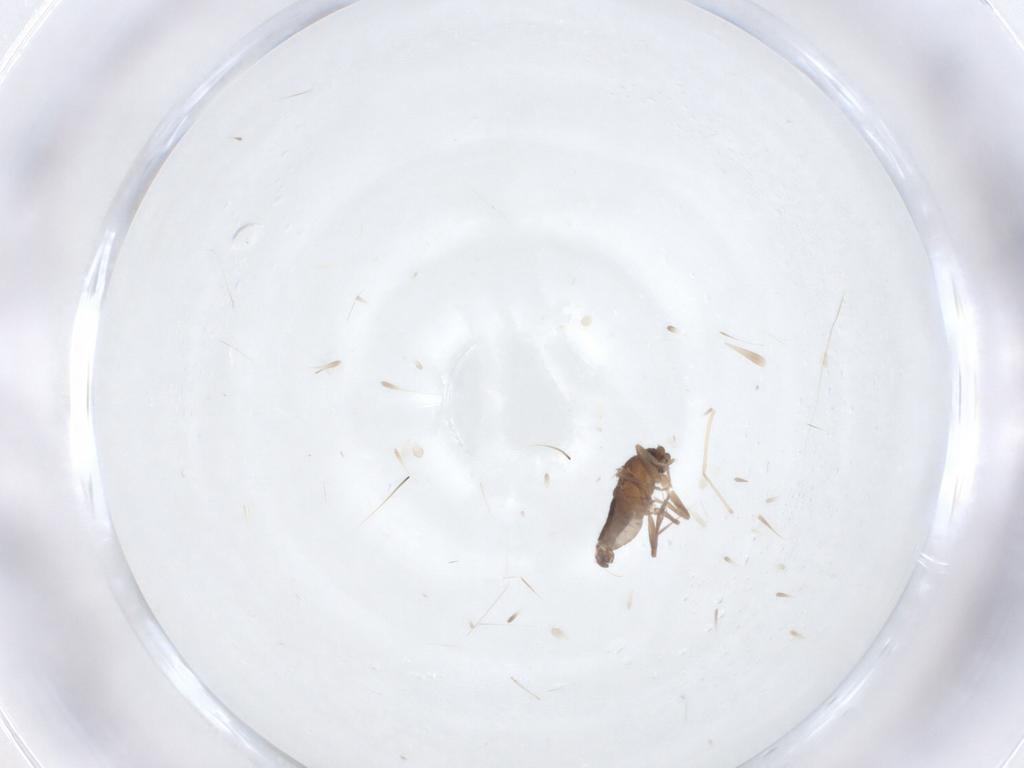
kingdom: Animalia
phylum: Arthropoda
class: Insecta
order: Diptera
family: Cecidomyiidae
